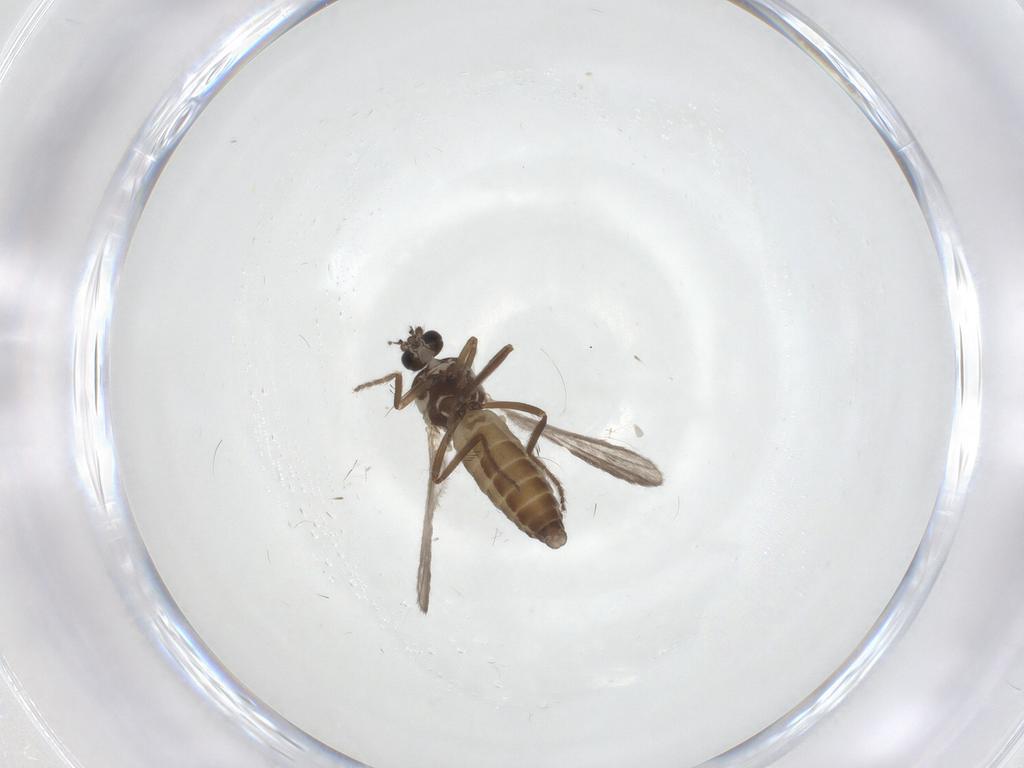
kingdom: Animalia
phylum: Arthropoda
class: Insecta
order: Diptera
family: Ceratopogonidae
